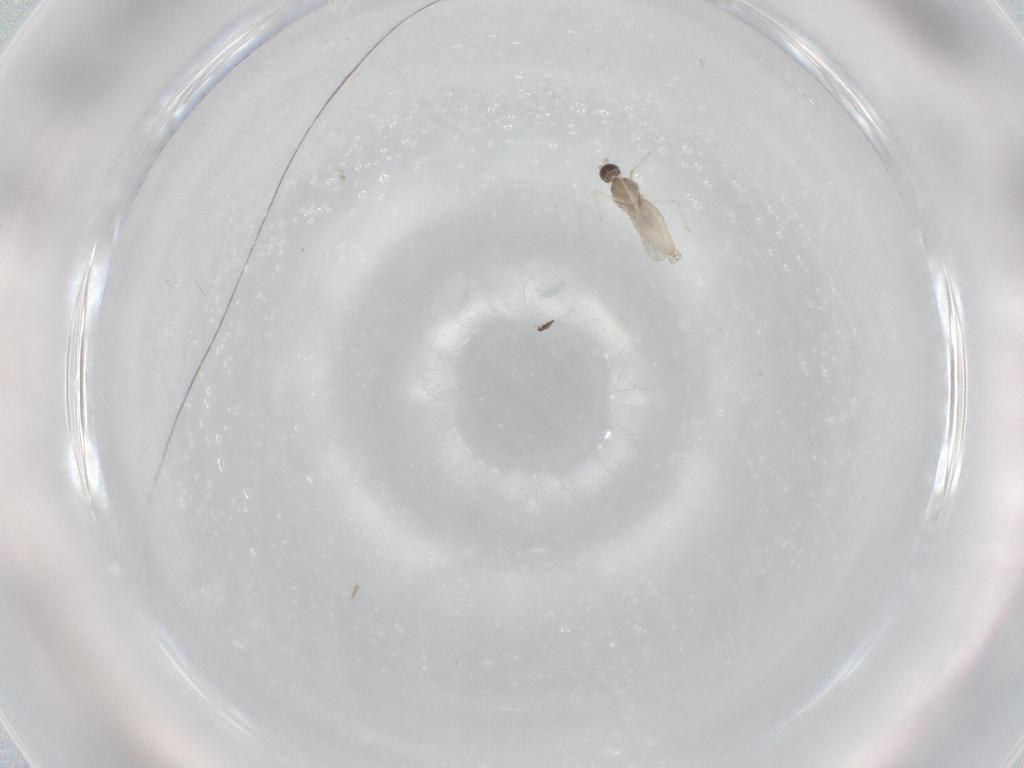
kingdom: Animalia
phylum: Arthropoda
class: Insecta
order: Diptera
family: Cecidomyiidae
